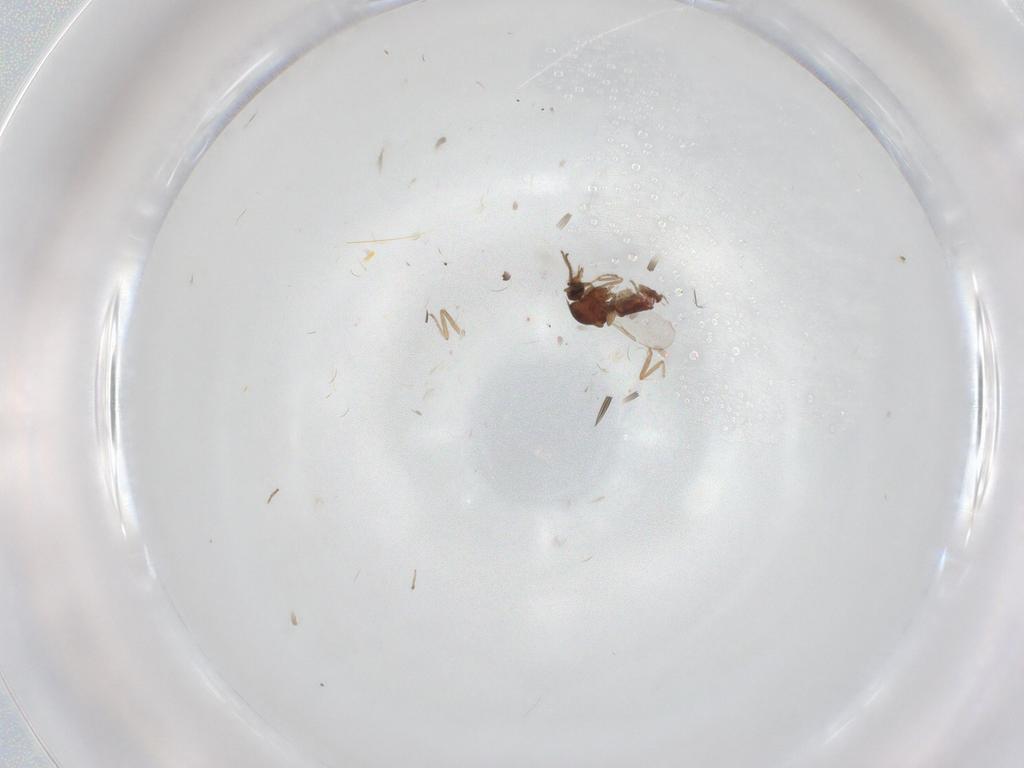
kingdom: Animalia
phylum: Arthropoda
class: Insecta
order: Diptera
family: Ceratopogonidae
